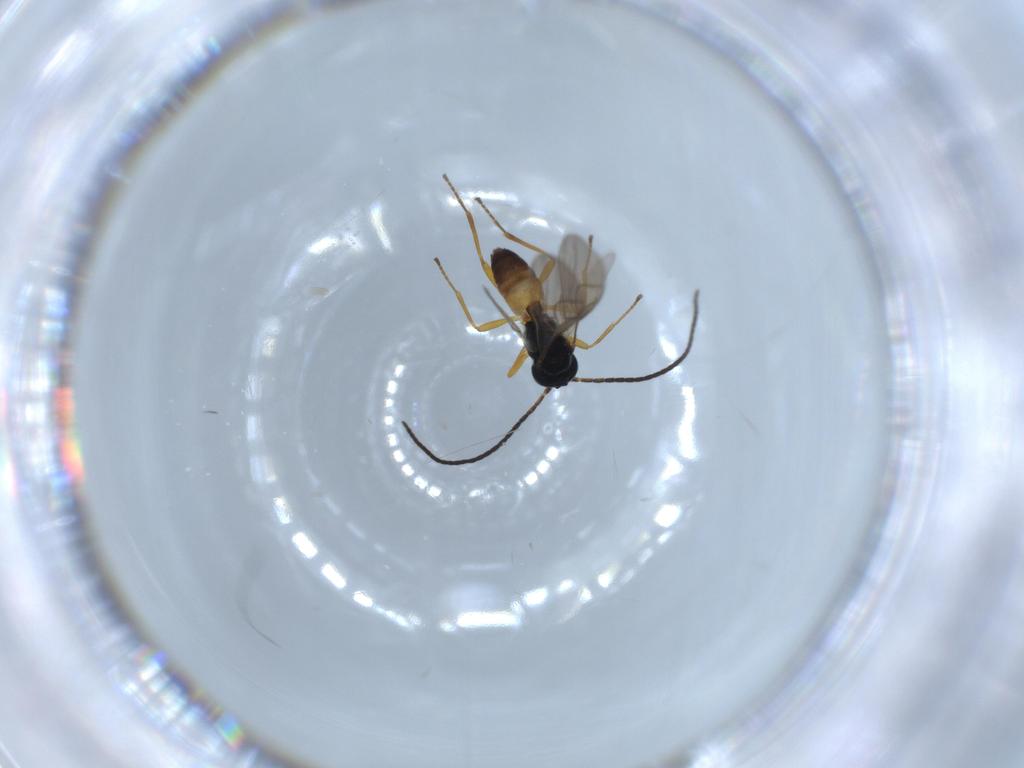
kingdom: Animalia
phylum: Arthropoda
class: Insecta
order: Hymenoptera
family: Braconidae
